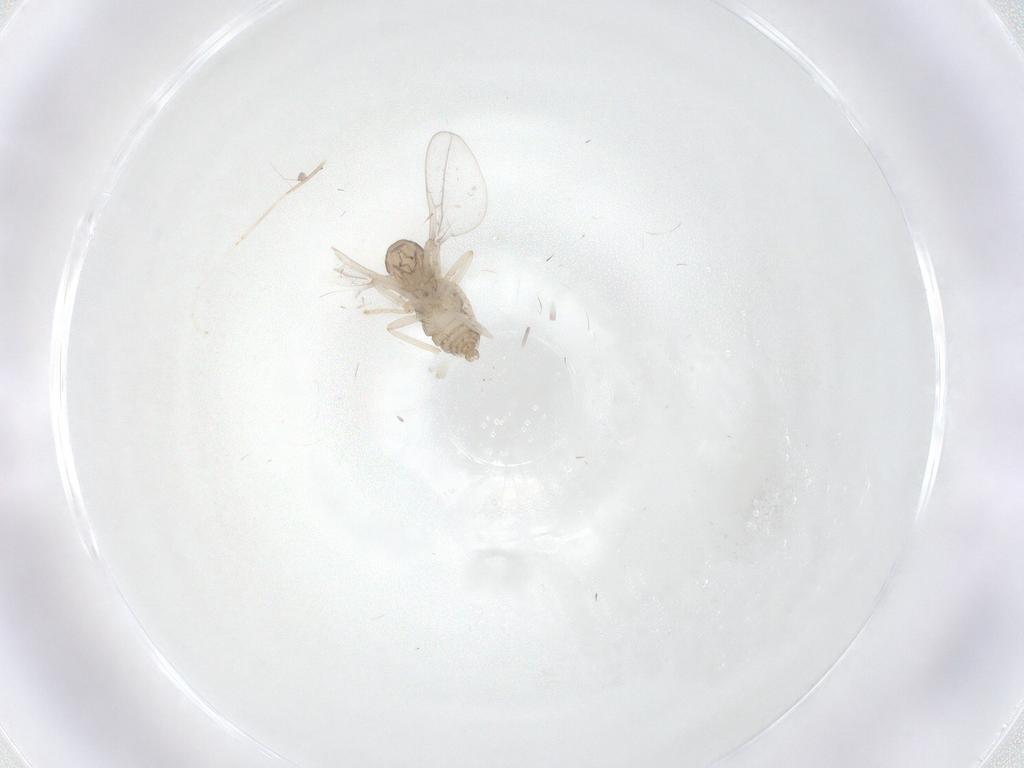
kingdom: Animalia
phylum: Arthropoda
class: Insecta
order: Diptera
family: Cecidomyiidae
